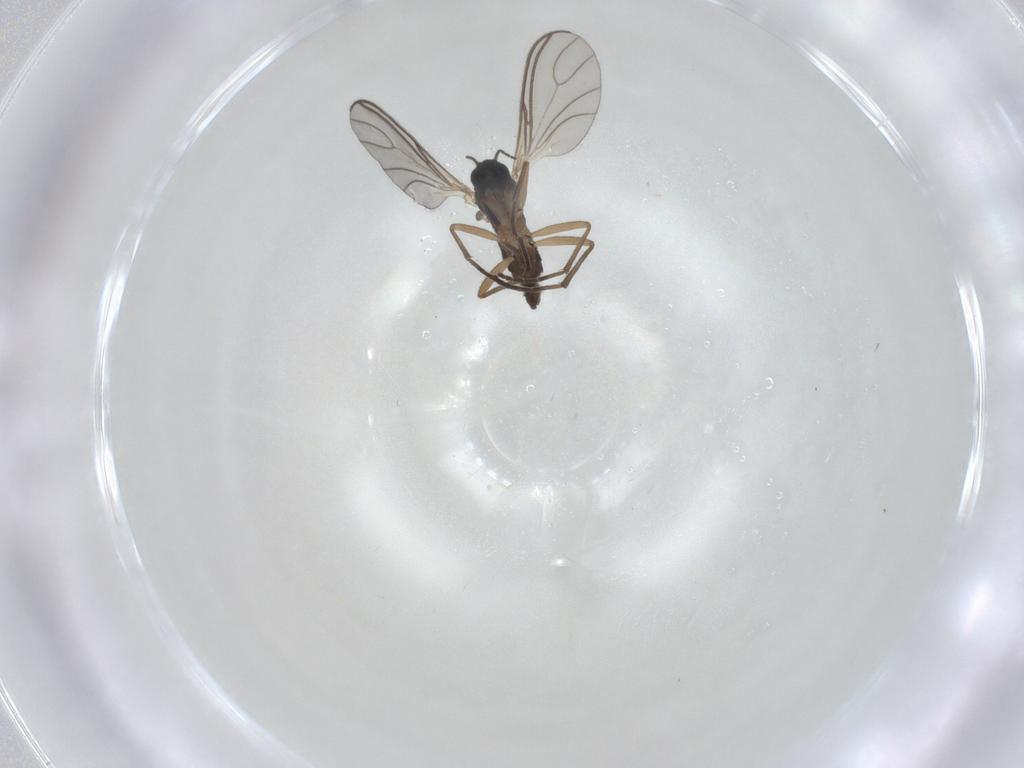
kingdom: Animalia
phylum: Arthropoda
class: Insecta
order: Diptera
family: Sciaridae
